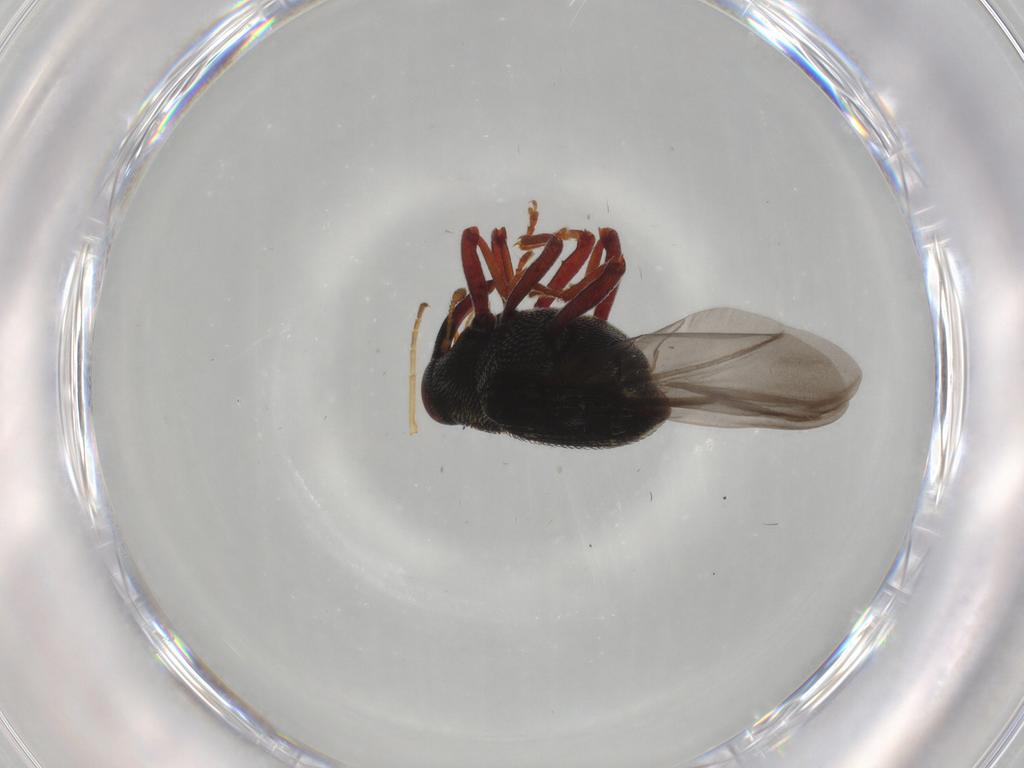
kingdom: Animalia
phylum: Arthropoda
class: Insecta
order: Coleoptera
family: Curculionidae
